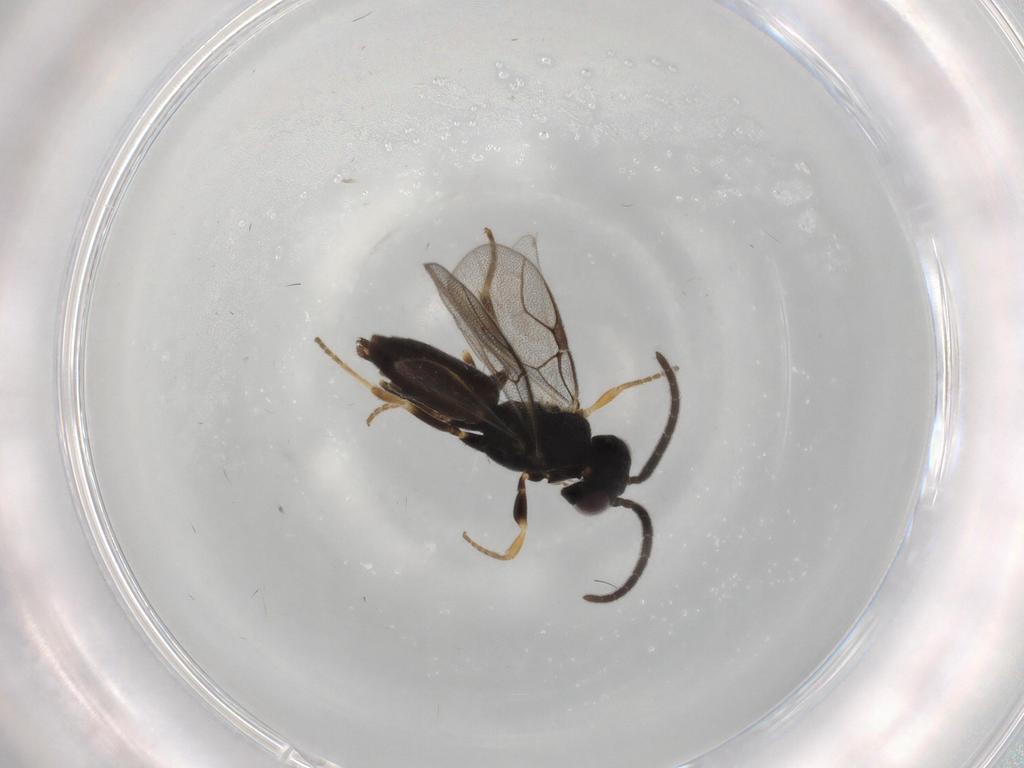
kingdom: Animalia
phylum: Arthropoda
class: Insecta
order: Hymenoptera
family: Dryinidae
